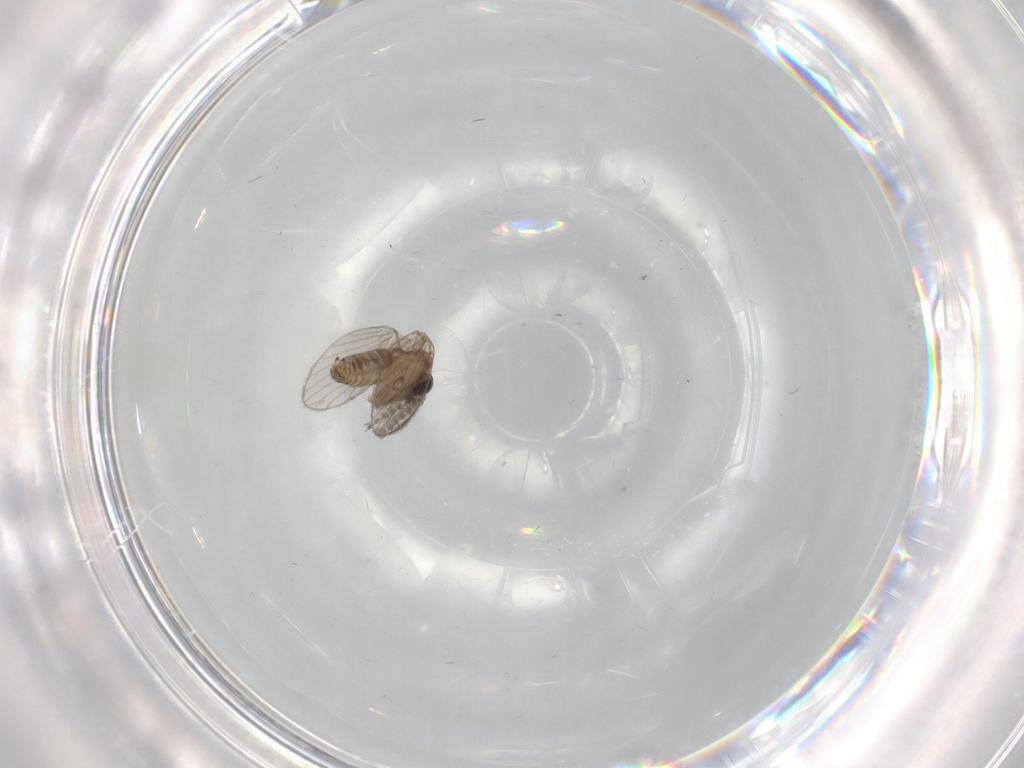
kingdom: Animalia
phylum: Arthropoda
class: Insecta
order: Diptera
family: Psychodidae
